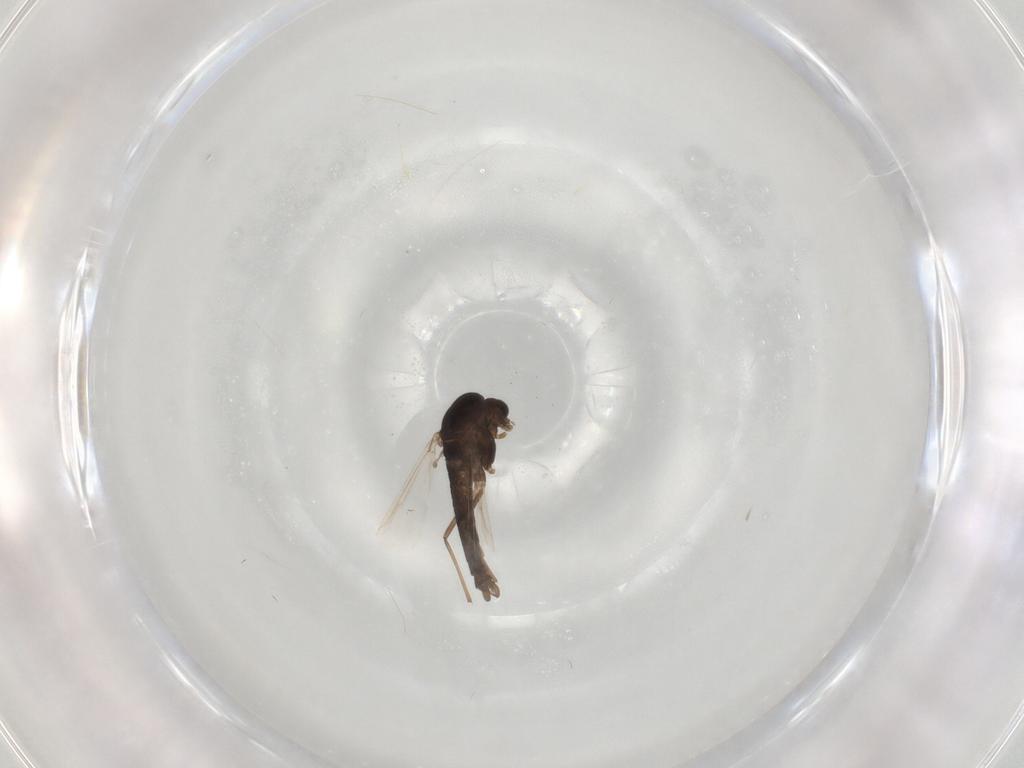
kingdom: Animalia
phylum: Arthropoda
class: Insecta
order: Diptera
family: Chironomidae
